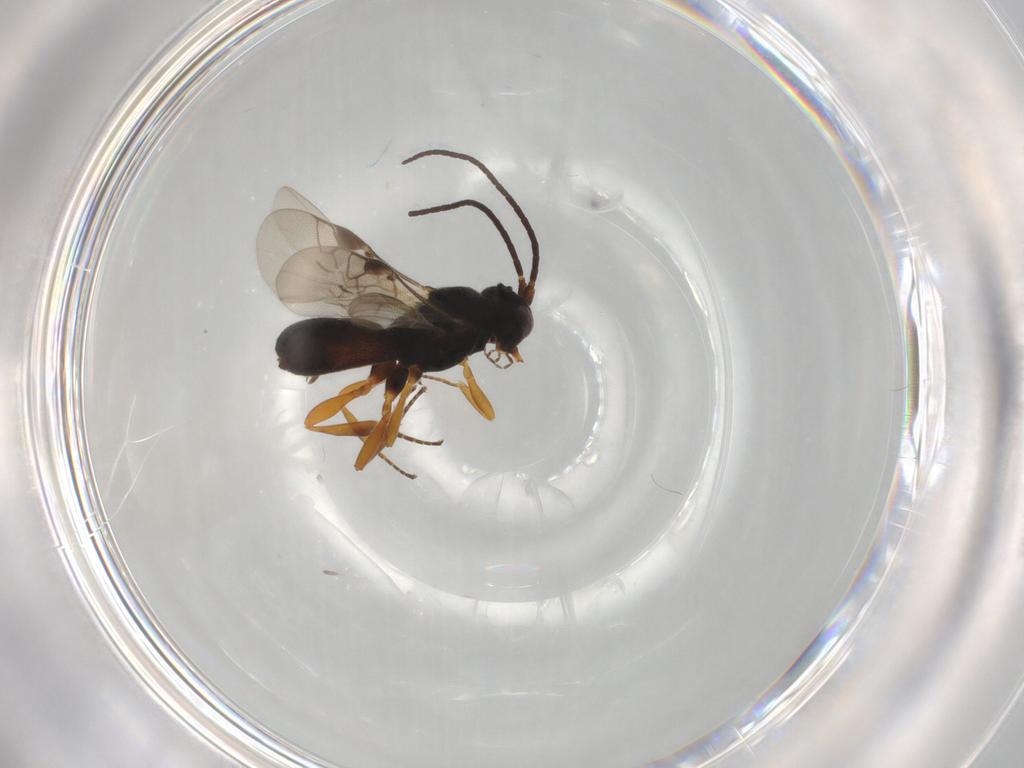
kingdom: Animalia
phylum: Arthropoda
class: Insecta
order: Hymenoptera
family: Braconidae
